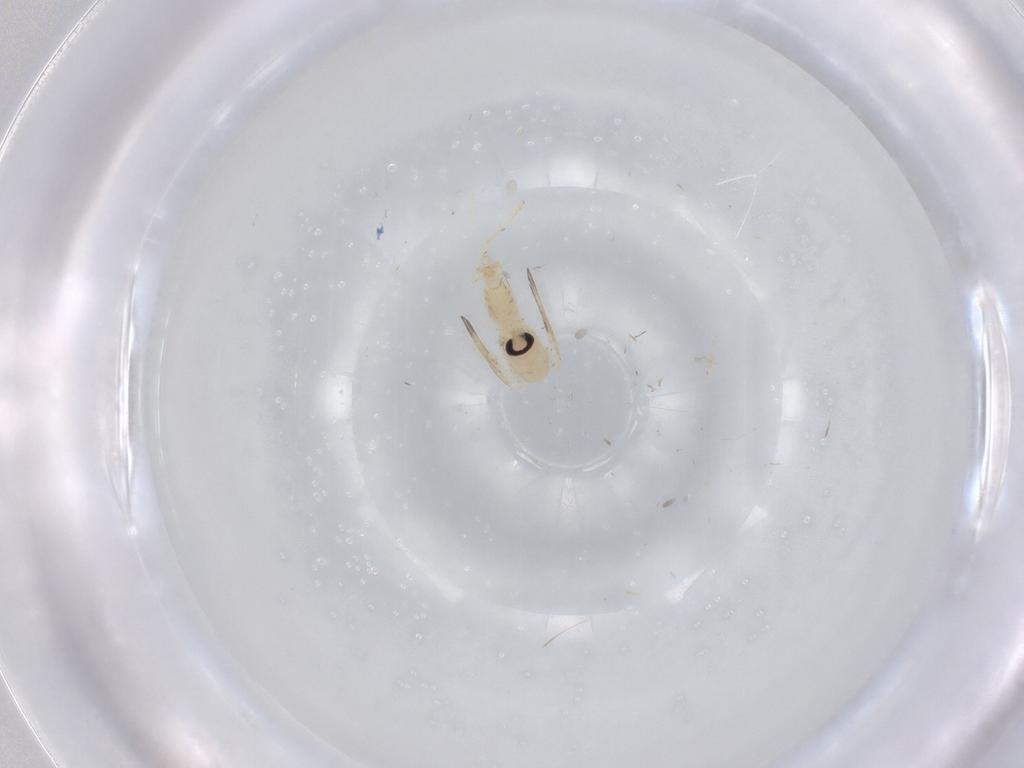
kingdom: Animalia
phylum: Arthropoda
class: Insecta
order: Diptera
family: Psychodidae
